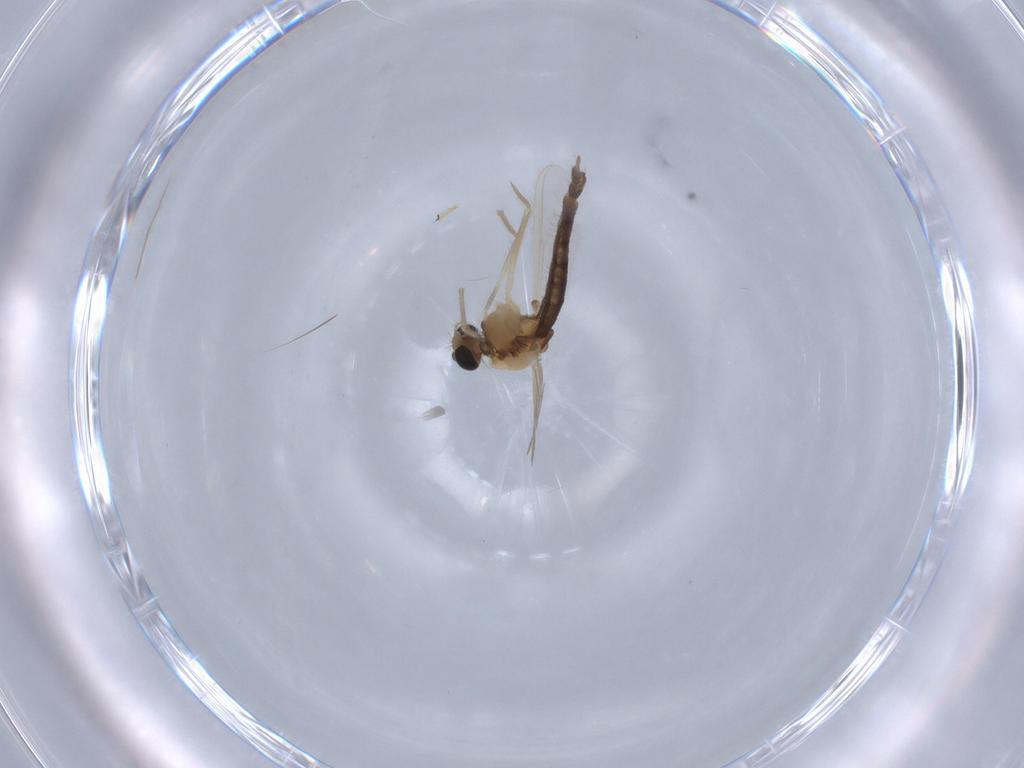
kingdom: Animalia
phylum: Arthropoda
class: Insecta
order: Diptera
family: Chironomidae
